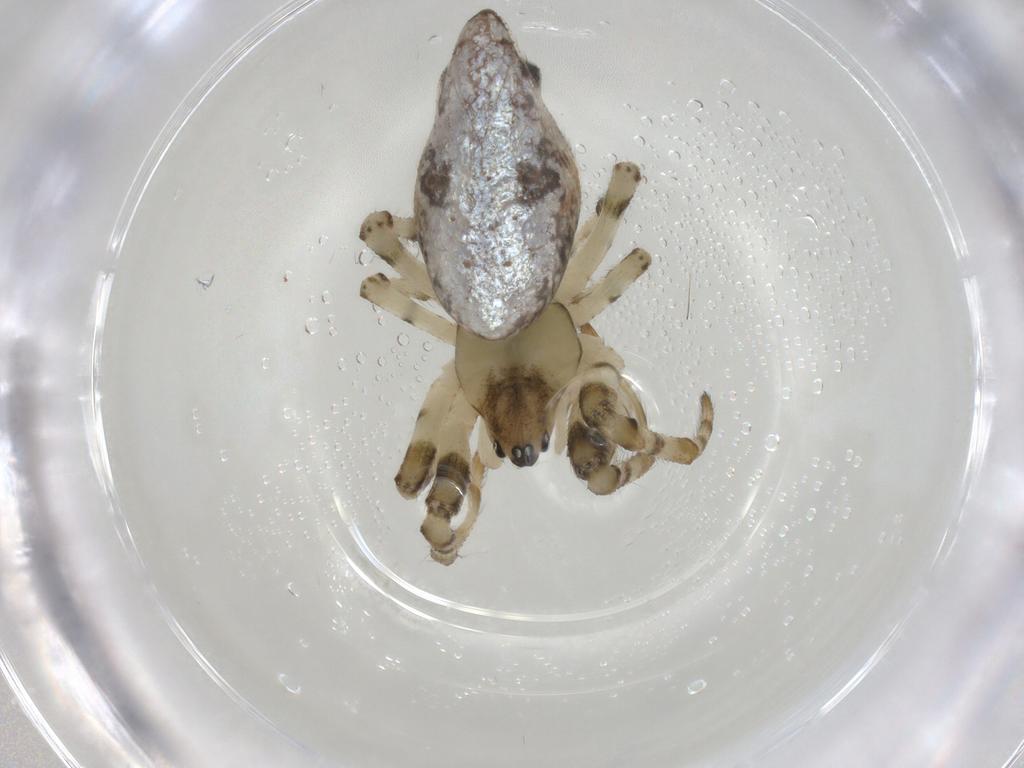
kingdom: Animalia
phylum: Arthropoda
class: Arachnida
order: Araneae
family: Araneidae
